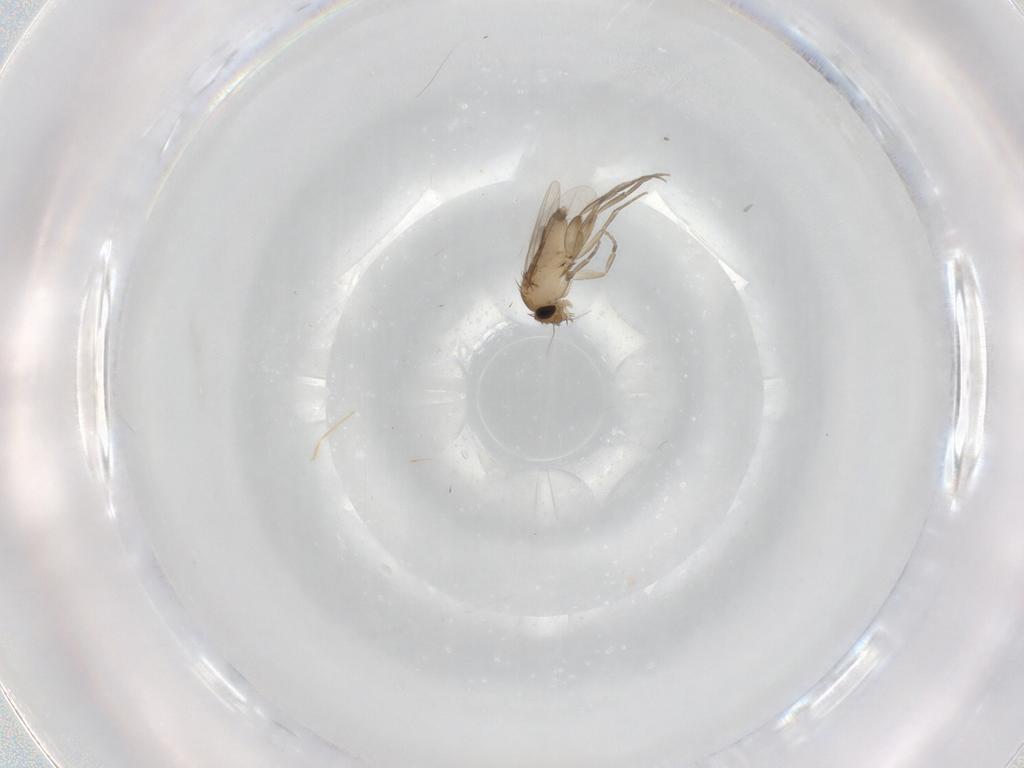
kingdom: Animalia
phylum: Arthropoda
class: Insecta
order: Diptera
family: Phoridae
